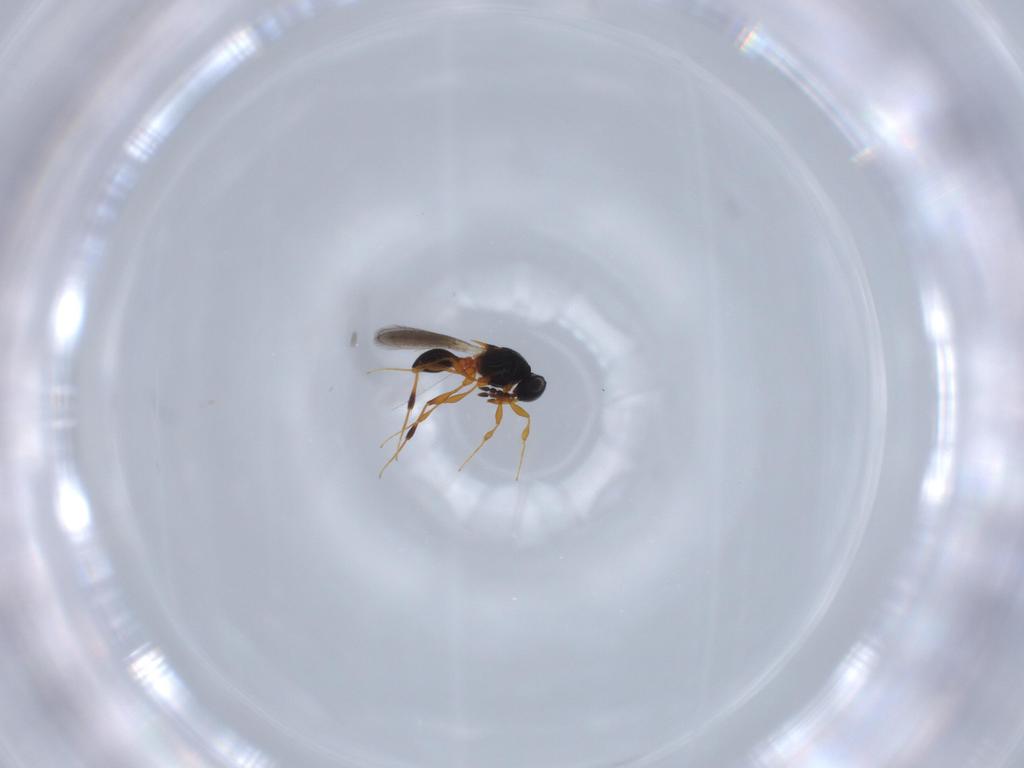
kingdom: Animalia
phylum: Arthropoda
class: Insecta
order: Hymenoptera
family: Platygastridae
